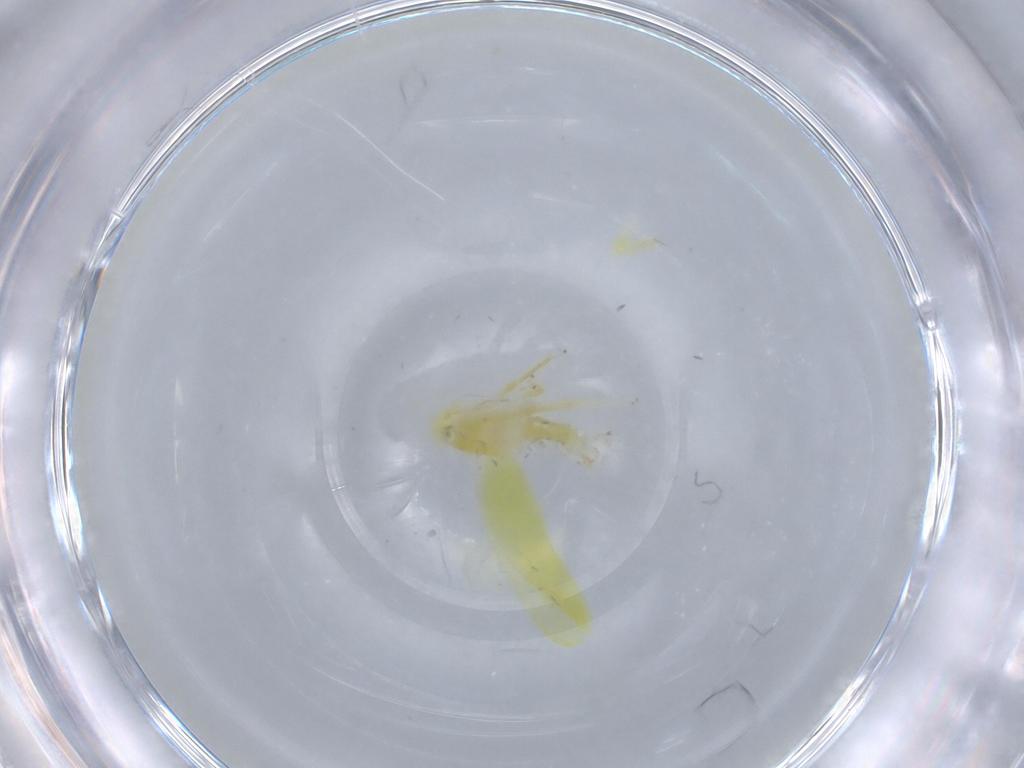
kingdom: Animalia
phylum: Arthropoda
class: Insecta
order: Hemiptera
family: Cicadellidae
